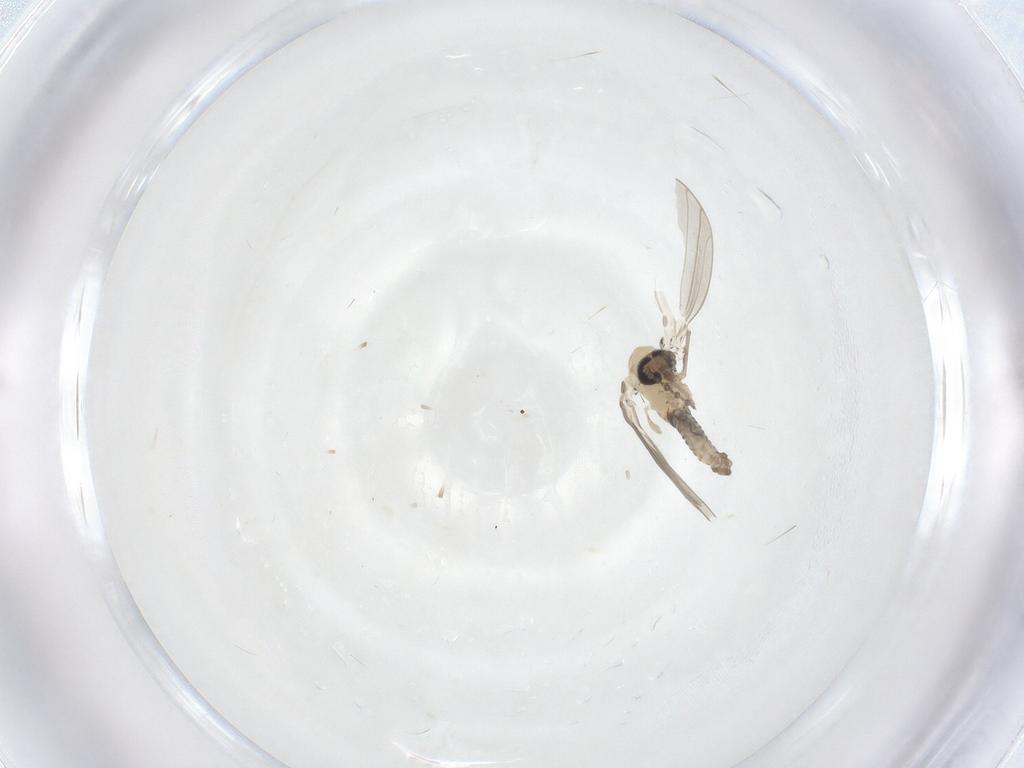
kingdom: Animalia
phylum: Arthropoda
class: Insecta
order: Diptera
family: Psychodidae
